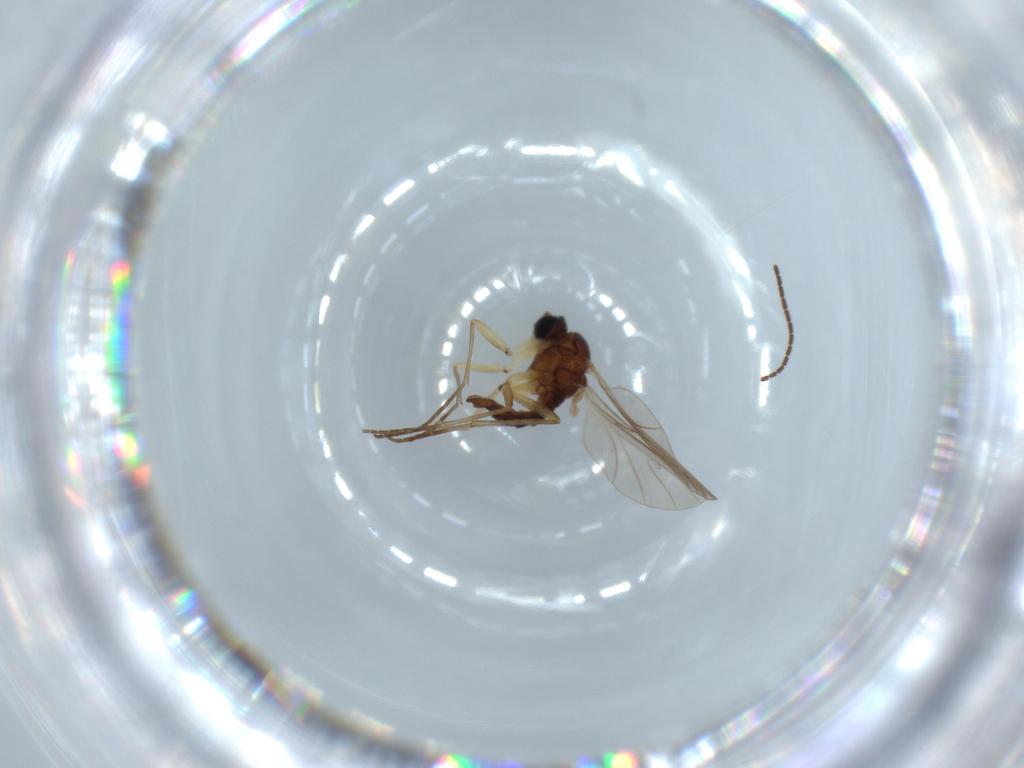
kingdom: Animalia
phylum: Arthropoda
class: Insecta
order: Diptera
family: Sciaridae
